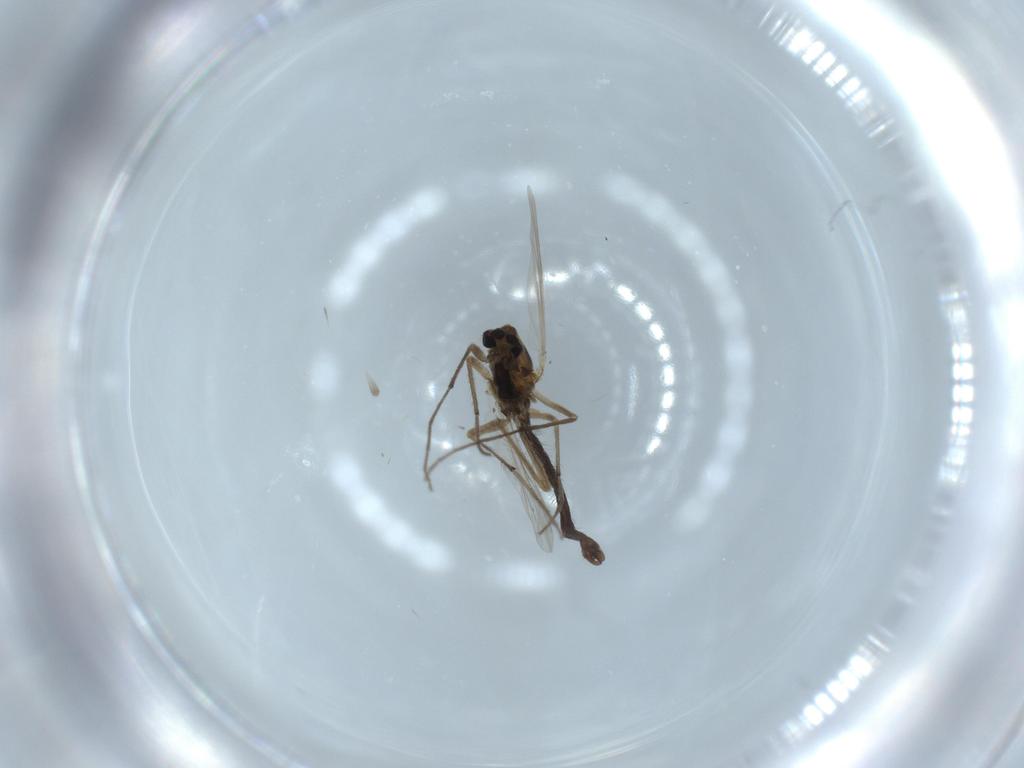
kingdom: Animalia
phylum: Arthropoda
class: Insecta
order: Diptera
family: Chironomidae
